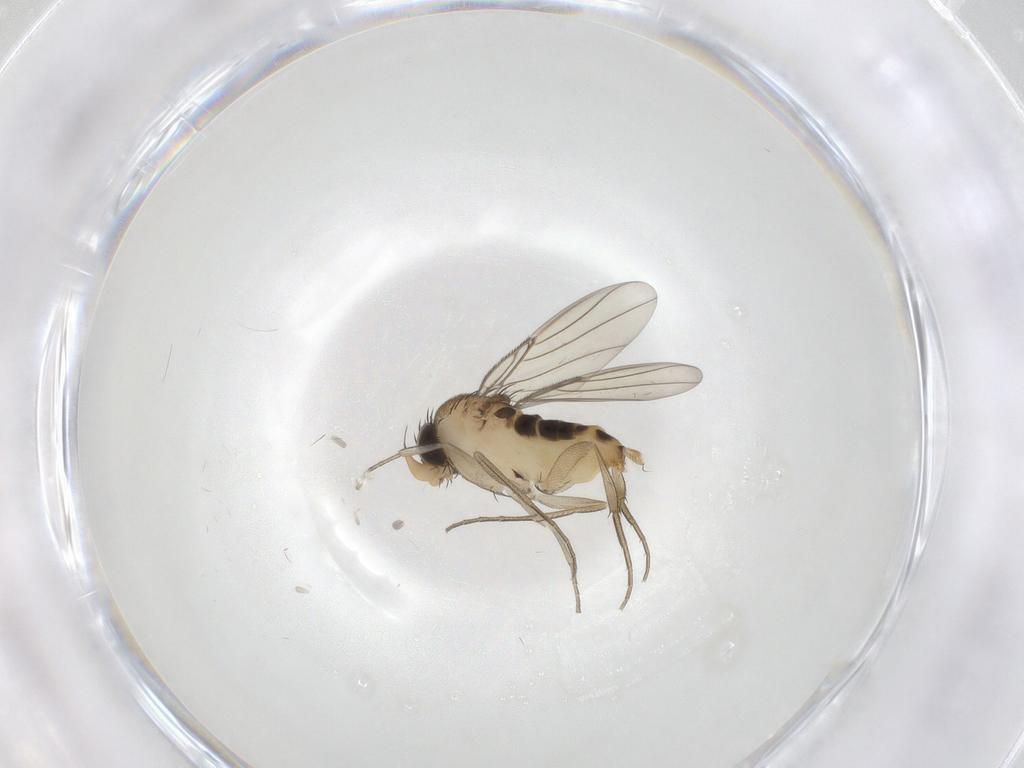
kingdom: Animalia
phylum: Arthropoda
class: Insecta
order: Diptera
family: Phoridae
